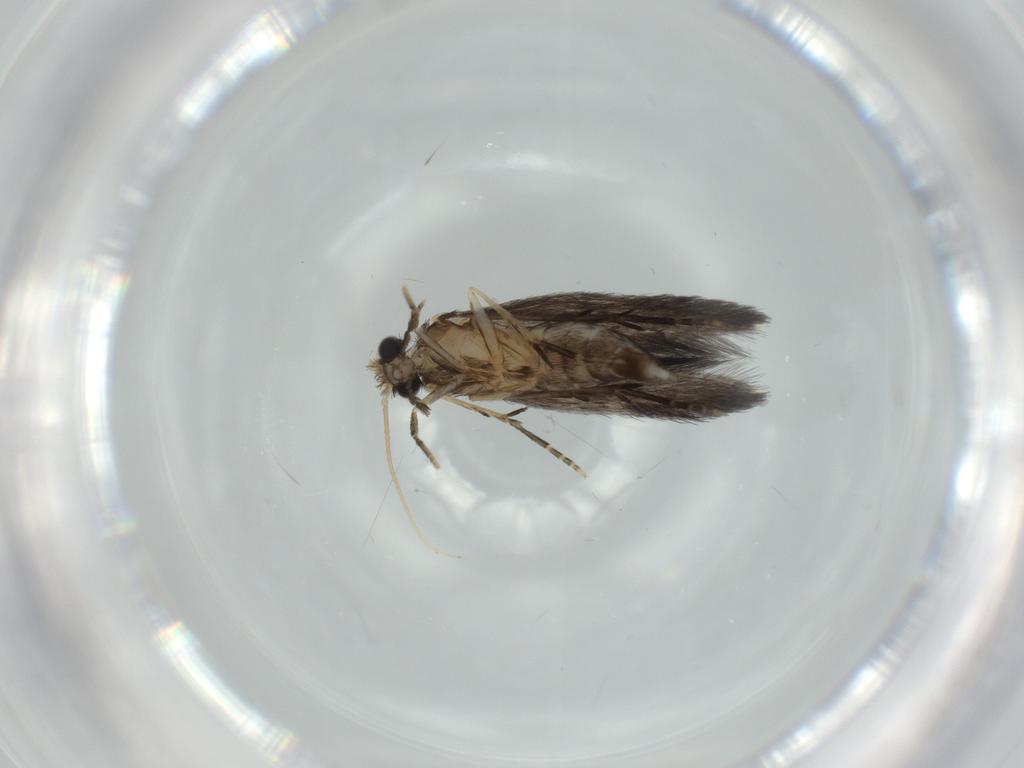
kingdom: Animalia
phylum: Arthropoda
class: Insecta
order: Trichoptera
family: Hydroptilidae
